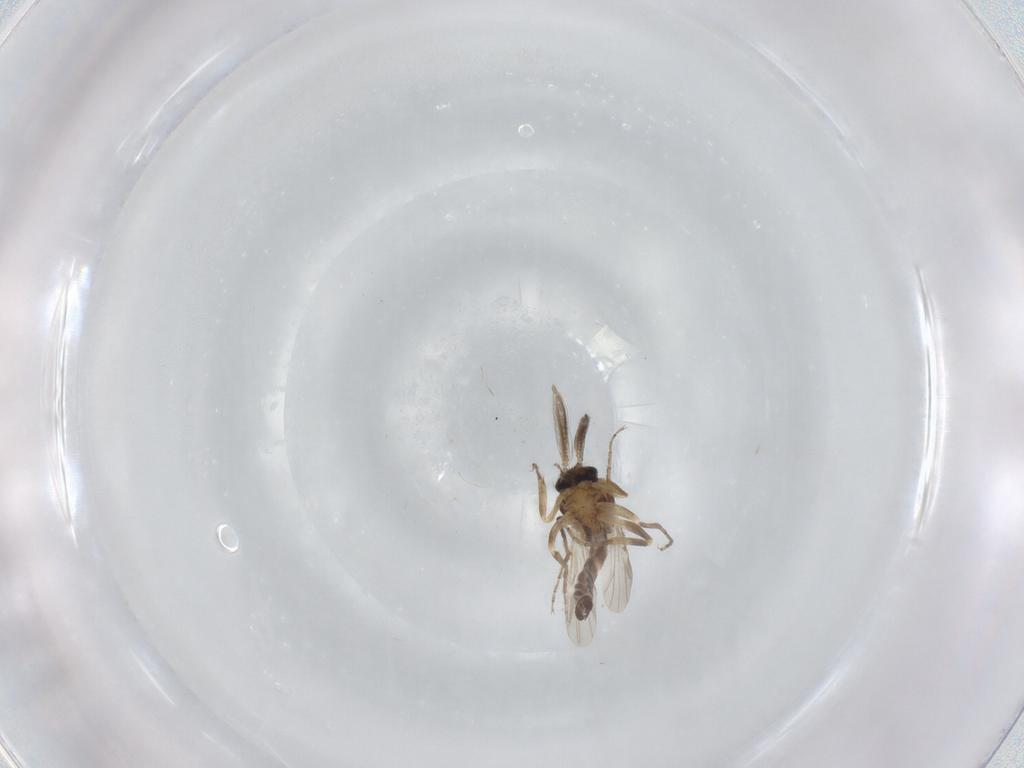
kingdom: Animalia
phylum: Arthropoda
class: Insecta
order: Diptera
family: Ceratopogonidae
